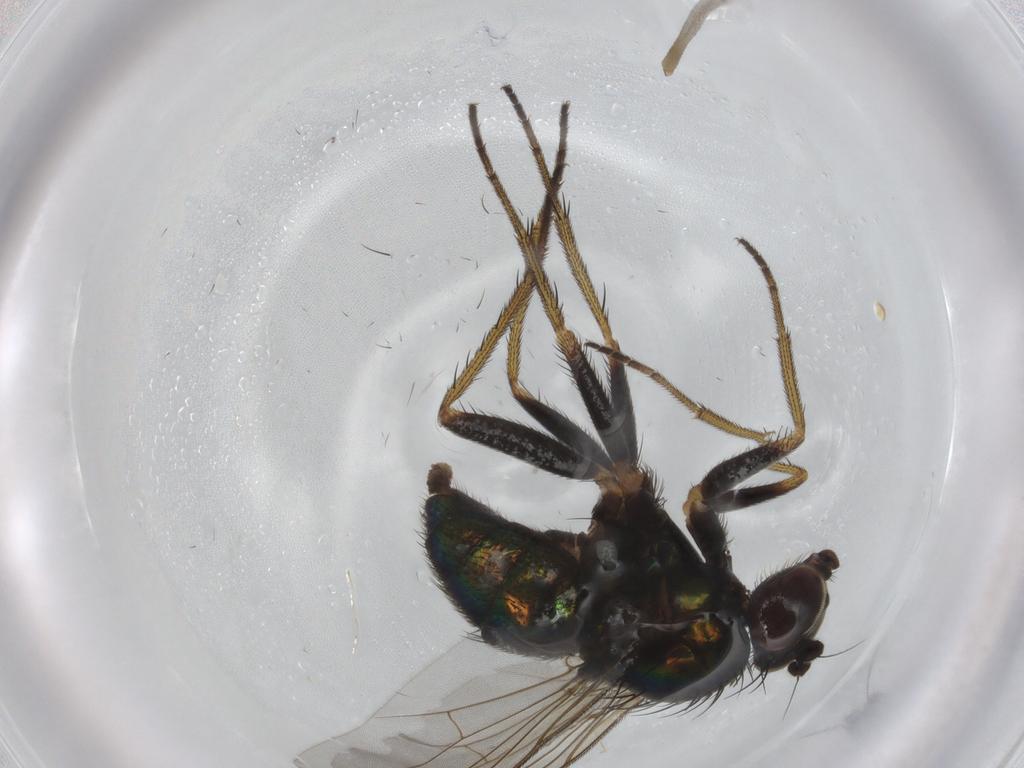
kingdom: Animalia
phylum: Arthropoda
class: Insecta
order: Diptera
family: Dolichopodidae
